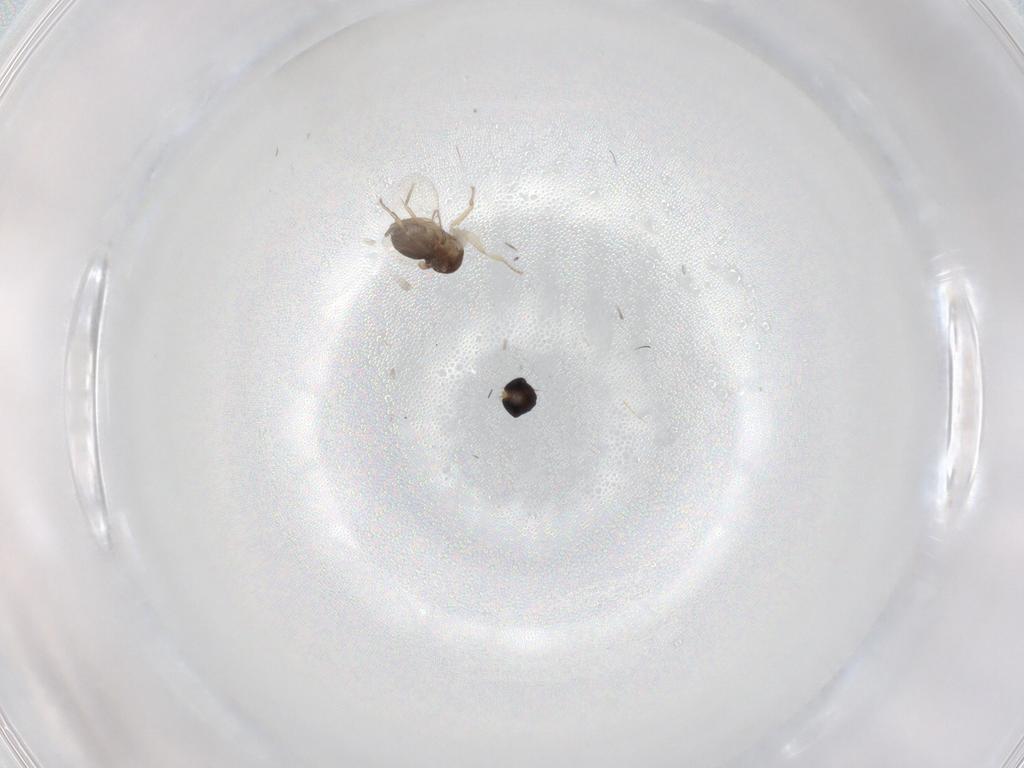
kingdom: Animalia
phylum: Arthropoda
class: Insecta
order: Diptera
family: Phoridae
